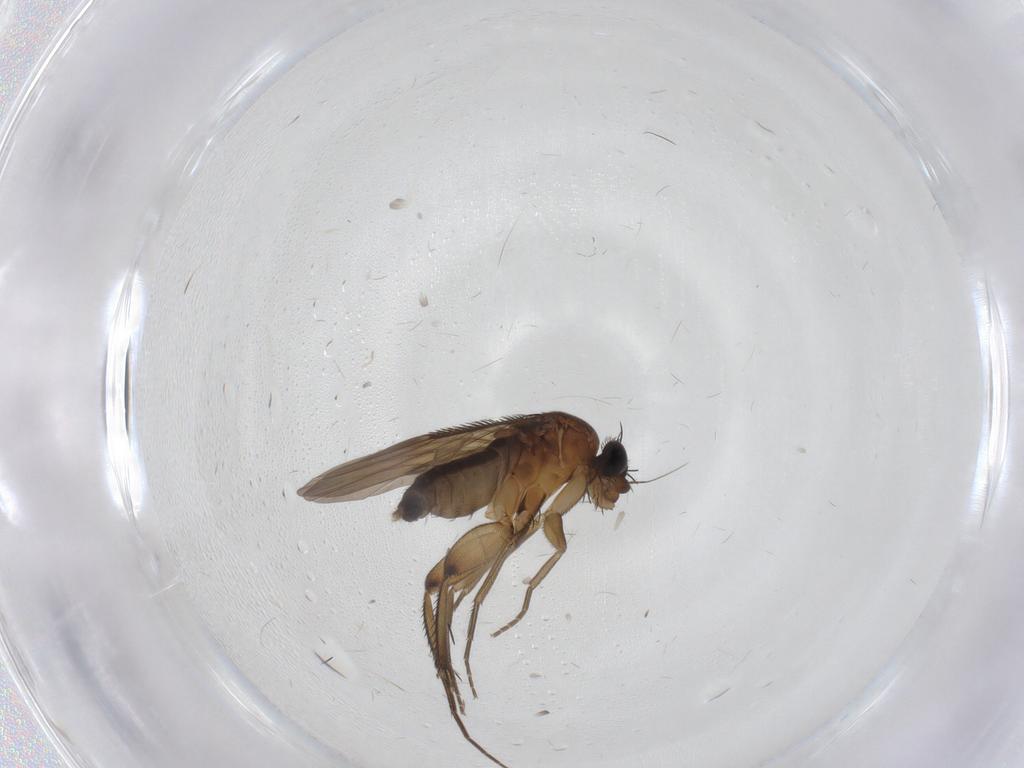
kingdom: Animalia
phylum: Arthropoda
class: Insecta
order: Diptera
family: Phoridae
